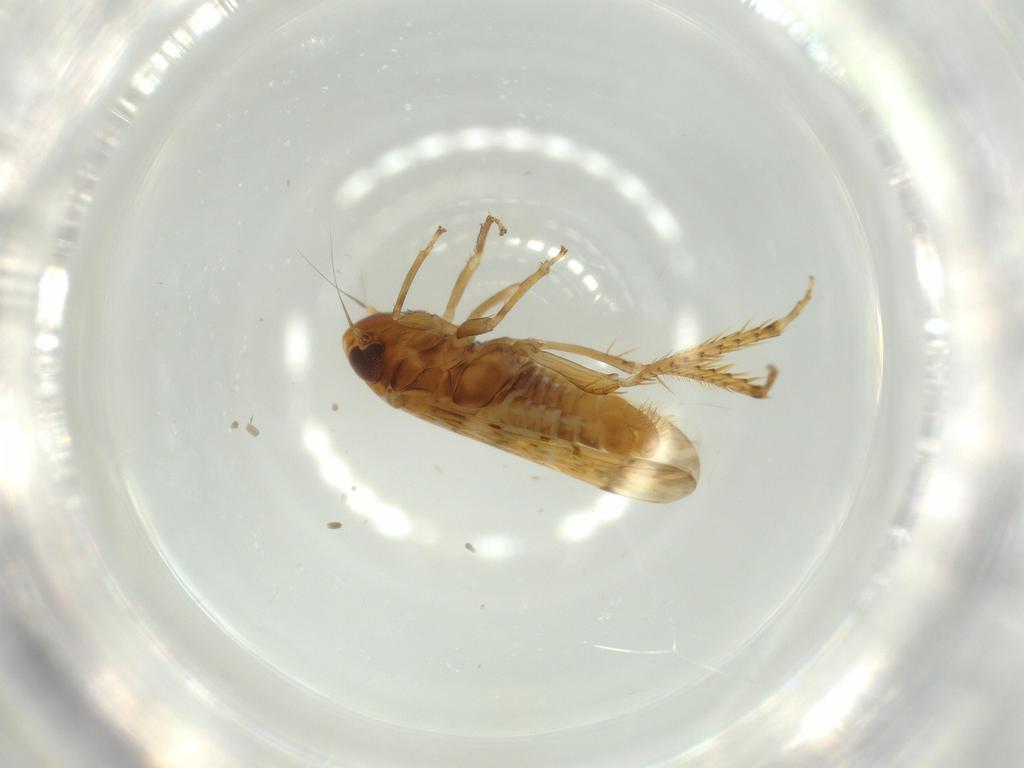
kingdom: Animalia
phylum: Arthropoda
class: Insecta
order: Hemiptera
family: Cicadellidae
